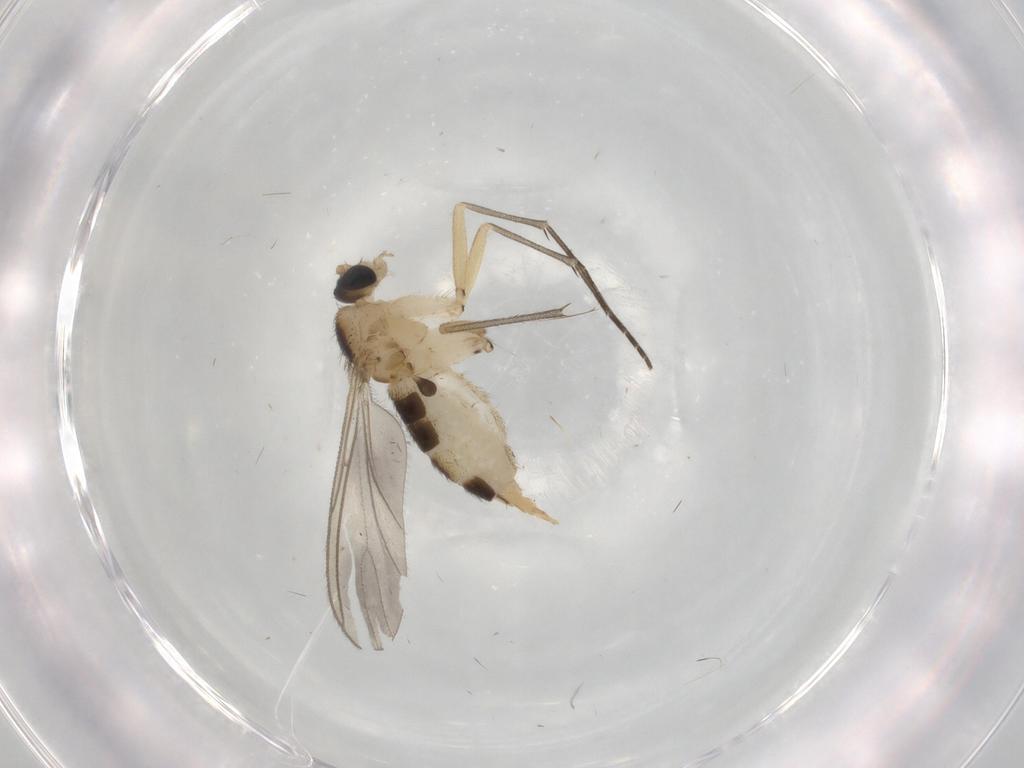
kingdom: Animalia
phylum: Arthropoda
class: Insecta
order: Diptera
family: Sciaridae
